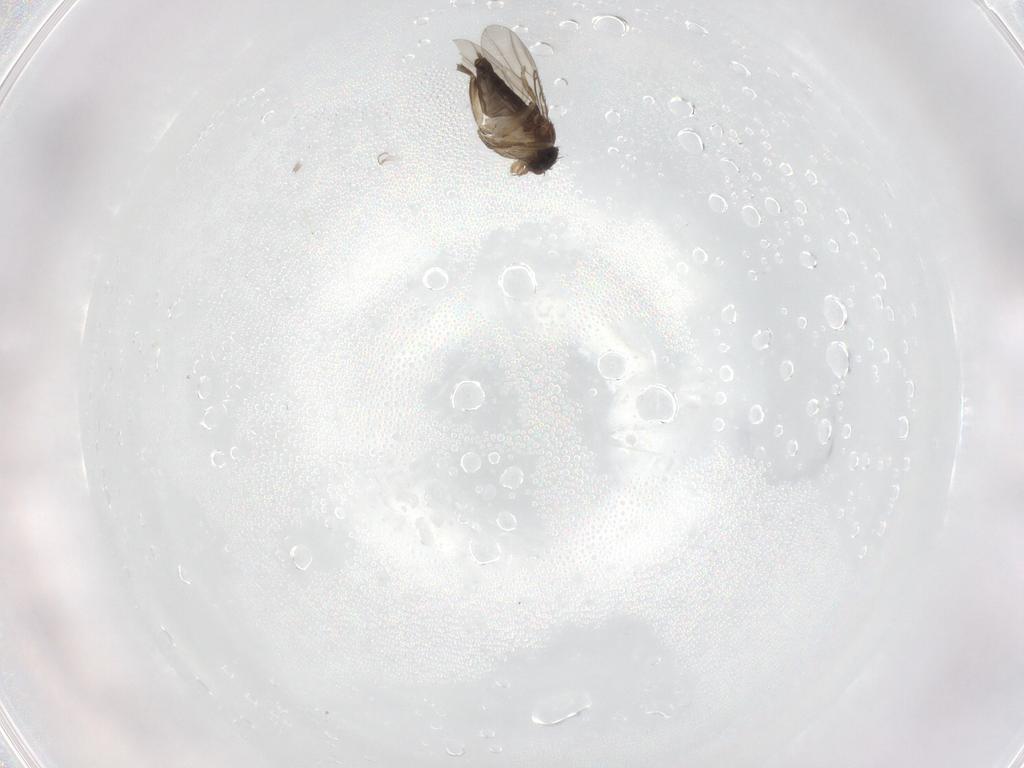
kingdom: Animalia
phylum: Arthropoda
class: Insecta
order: Diptera
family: Phoridae
